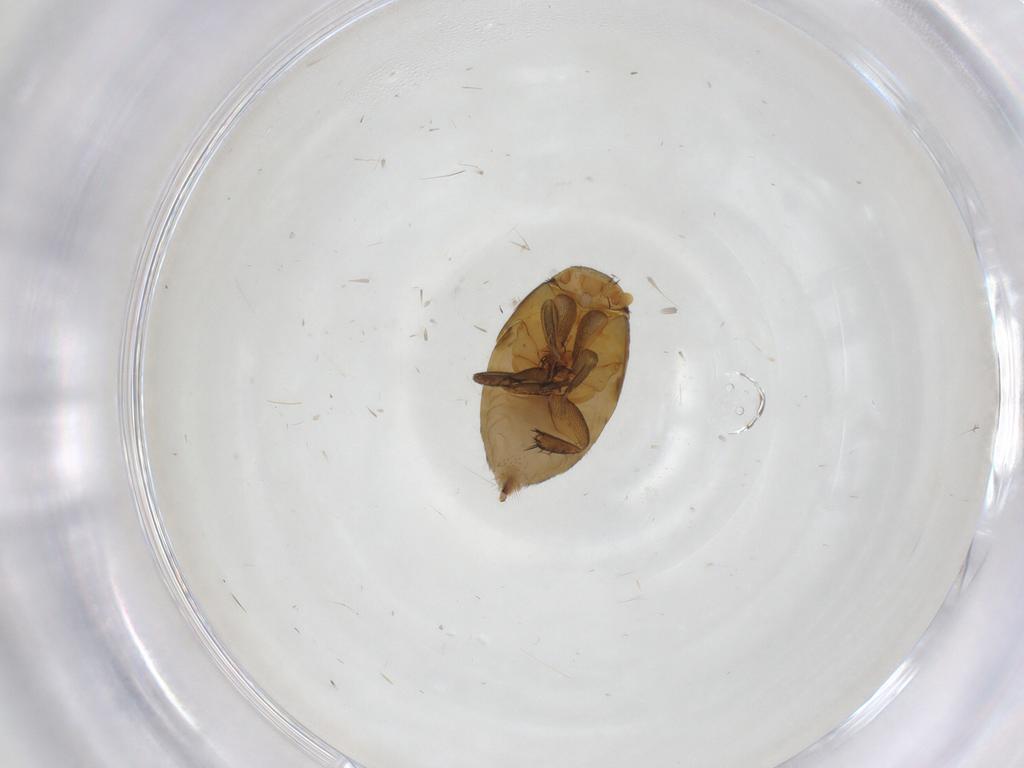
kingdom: Animalia
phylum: Arthropoda
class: Insecta
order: Diptera
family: Phoridae
